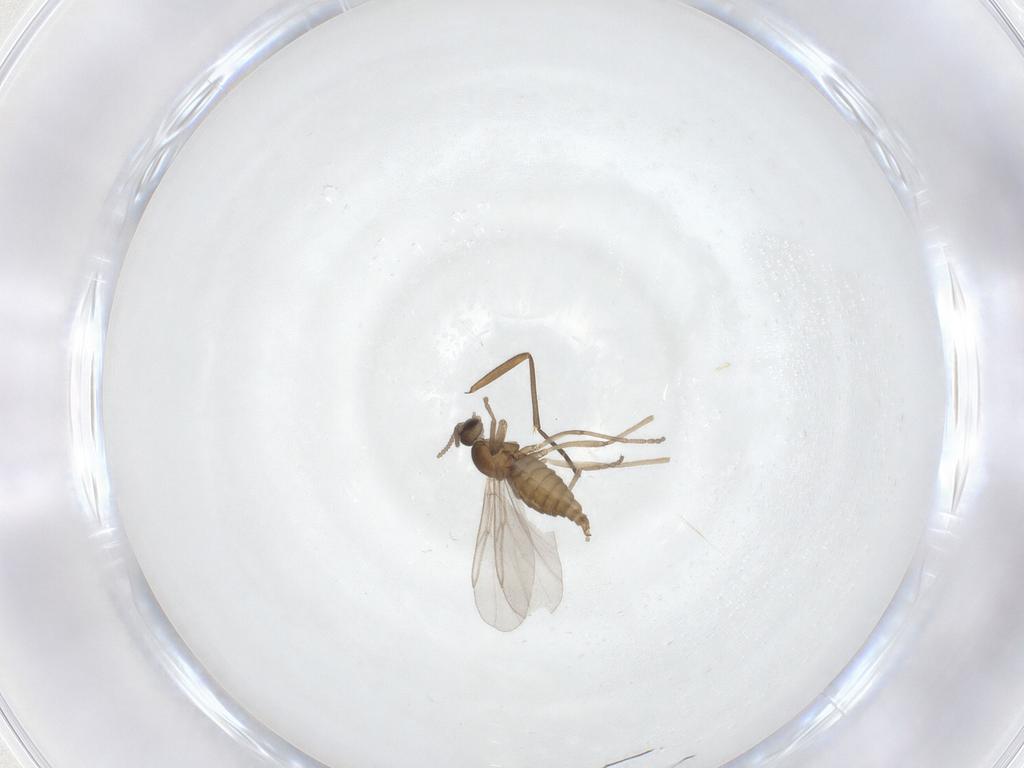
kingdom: Animalia
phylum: Arthropoda
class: Insecta
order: Diptera
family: Cecidomyiidae
